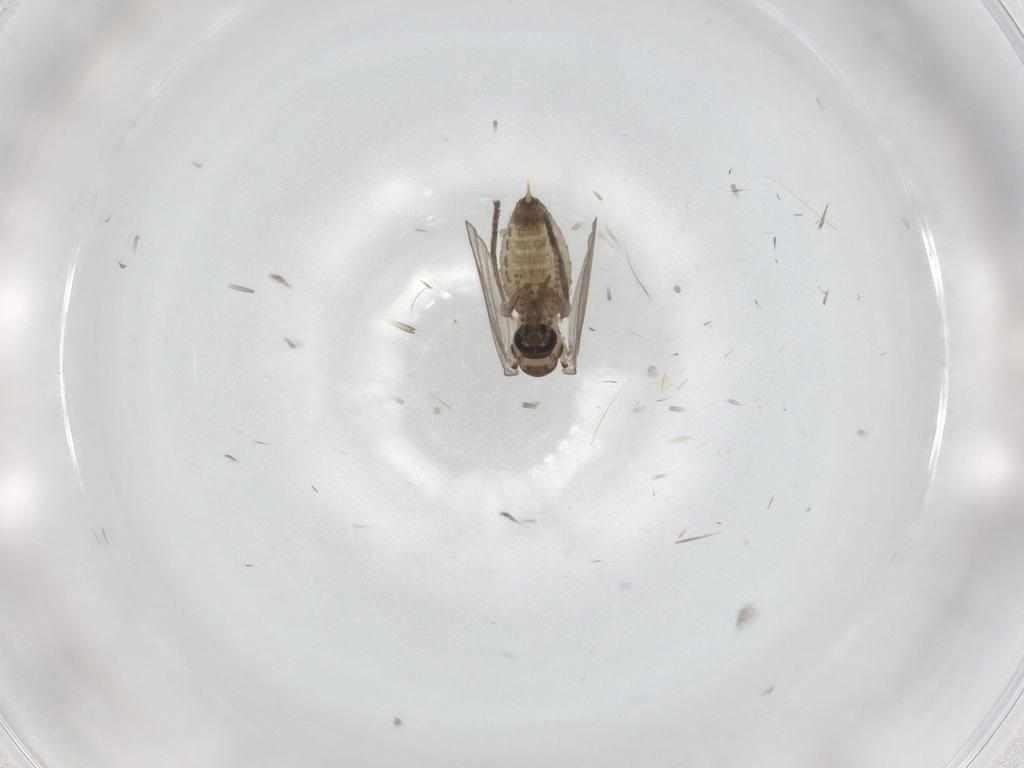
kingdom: Animalia
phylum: Arthropoda
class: Insecta
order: Diptera
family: Psychodidae
